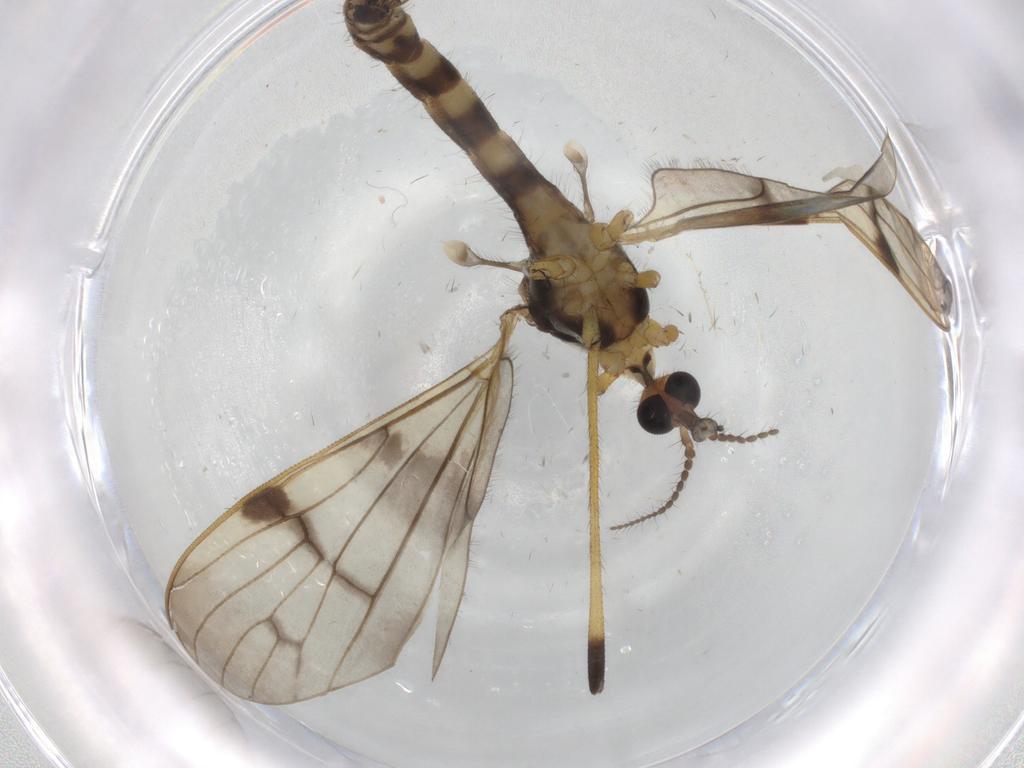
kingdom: Animalia
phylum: Arthropoda
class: Insecta
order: Diptera
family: Limoniidae
